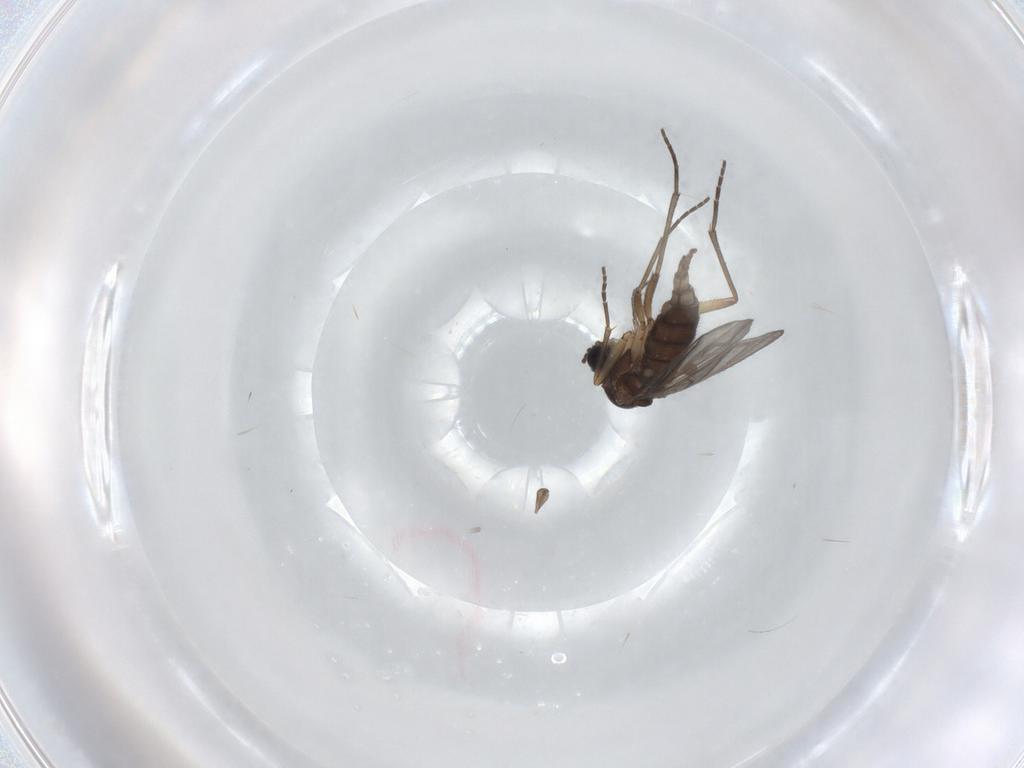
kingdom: Animalia
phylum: Arthropoda
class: Insecta
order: Diptera
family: Sciaridae
